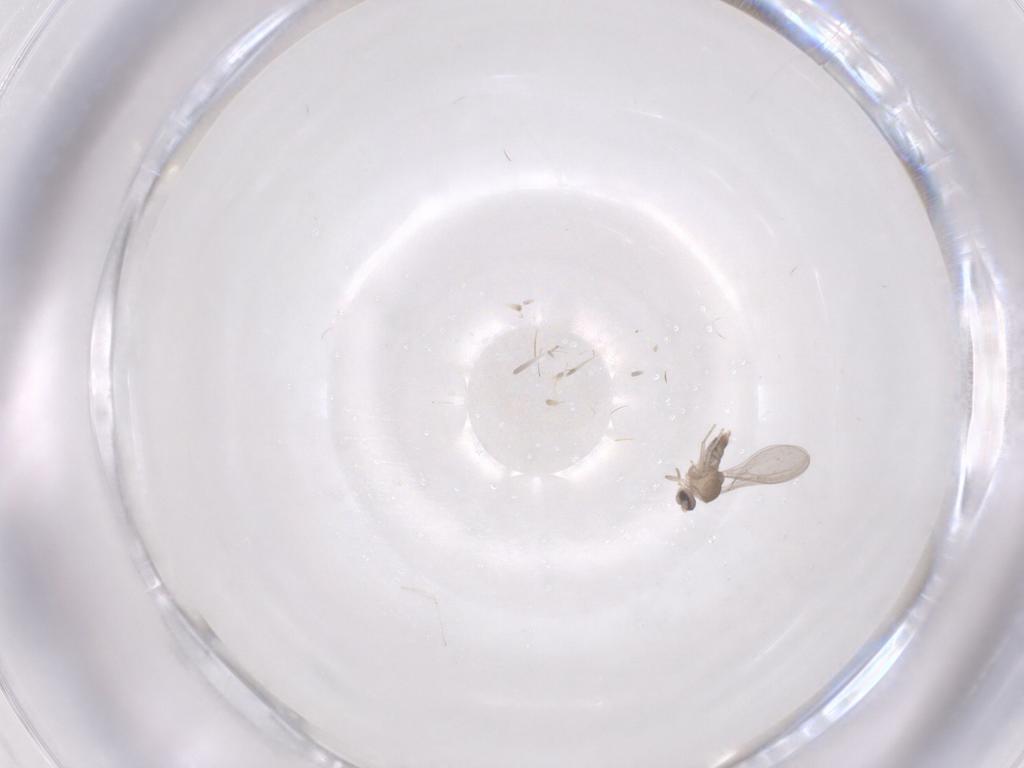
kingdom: Animalia
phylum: Arthropoda
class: Insecta
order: Diptera
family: Cecidomyiidae
